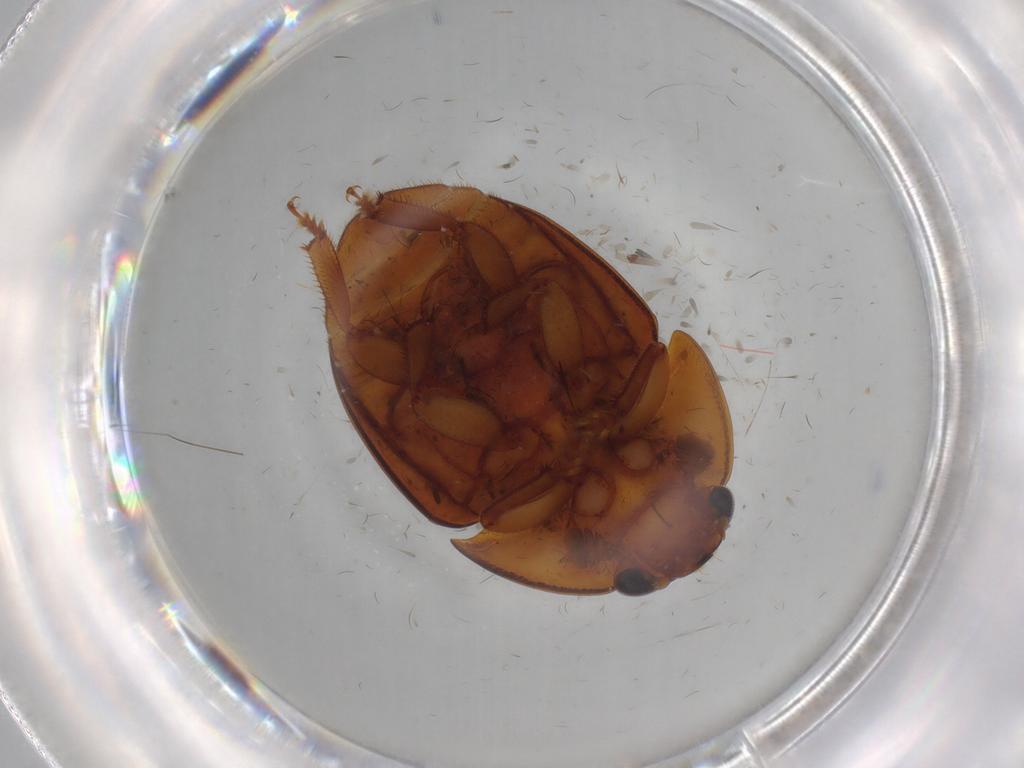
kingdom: Animalia
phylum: Arthropoda
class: Insecta
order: Coleoptera
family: Nitidulidae
